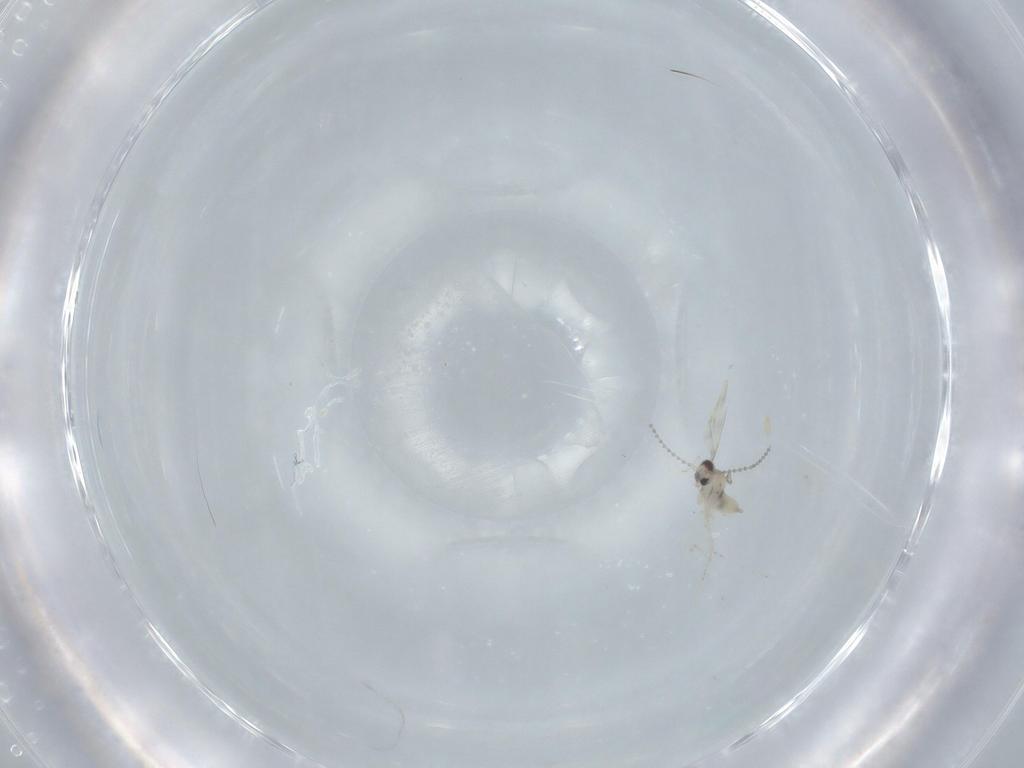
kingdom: Animalia
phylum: Arthropoda
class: Insecta
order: Diptera
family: Cecidomyiidae
